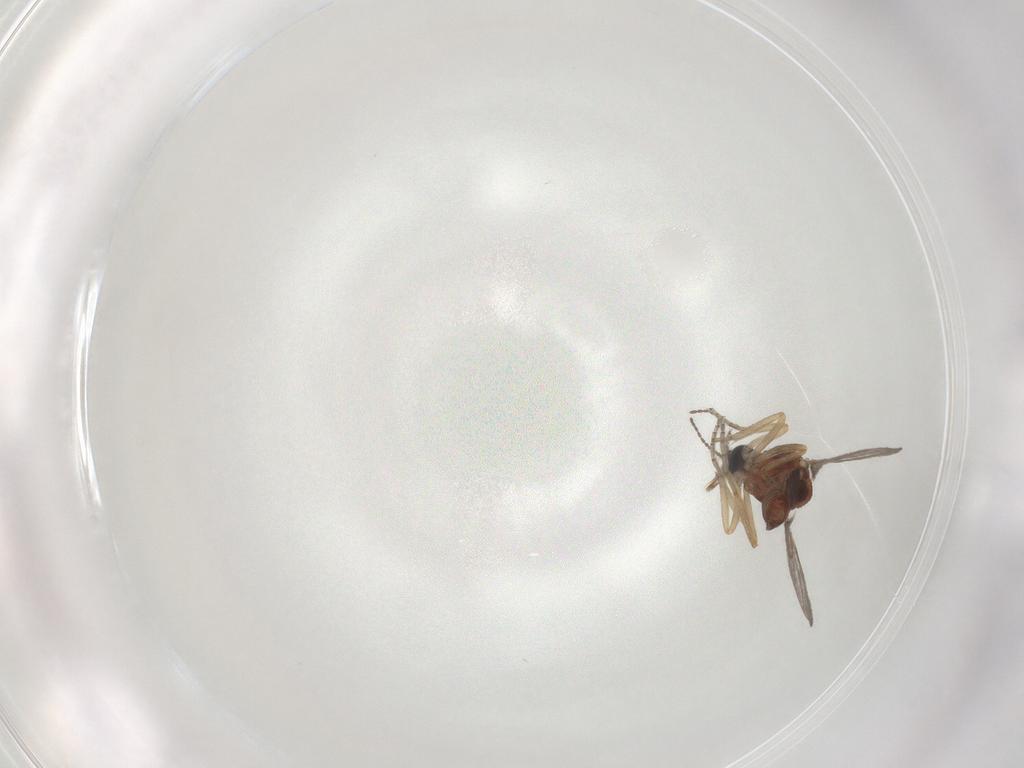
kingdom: Animalia
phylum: Arthropoda
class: Insecta
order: Diptera
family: Ceratopogonidae
